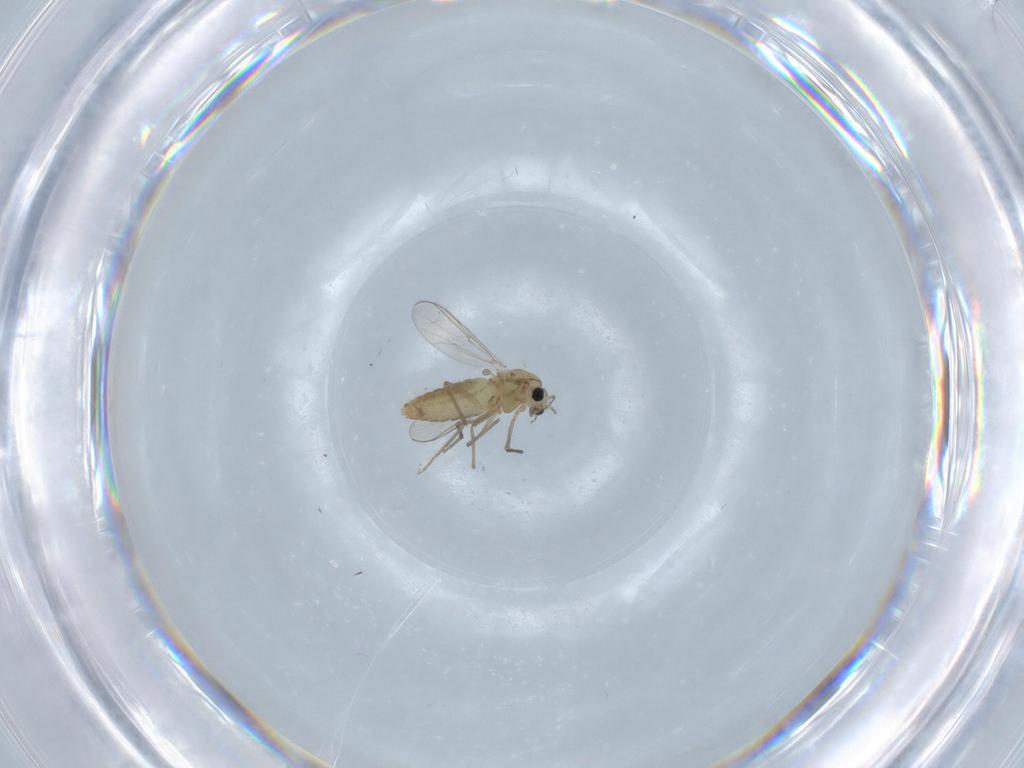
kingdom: Animalia
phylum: Arthropoda
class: Insecta
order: Diptera
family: Chironomidae
